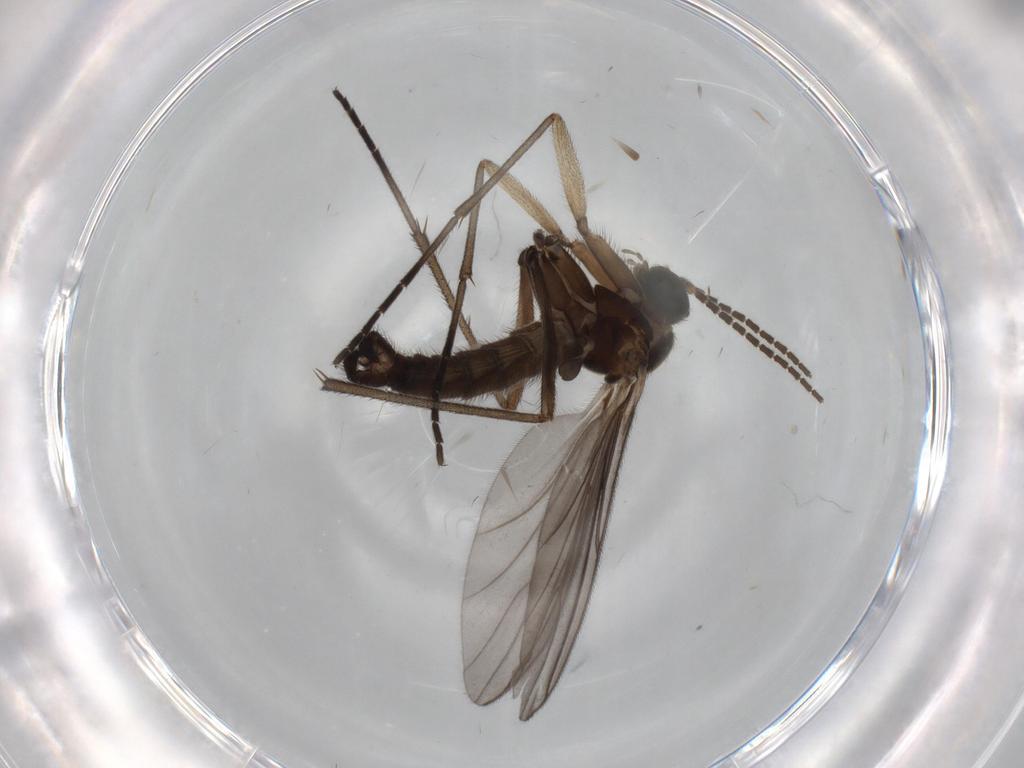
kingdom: Animalia
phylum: Arthropoda
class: Insecta
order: Diptera
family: Sciaridae
